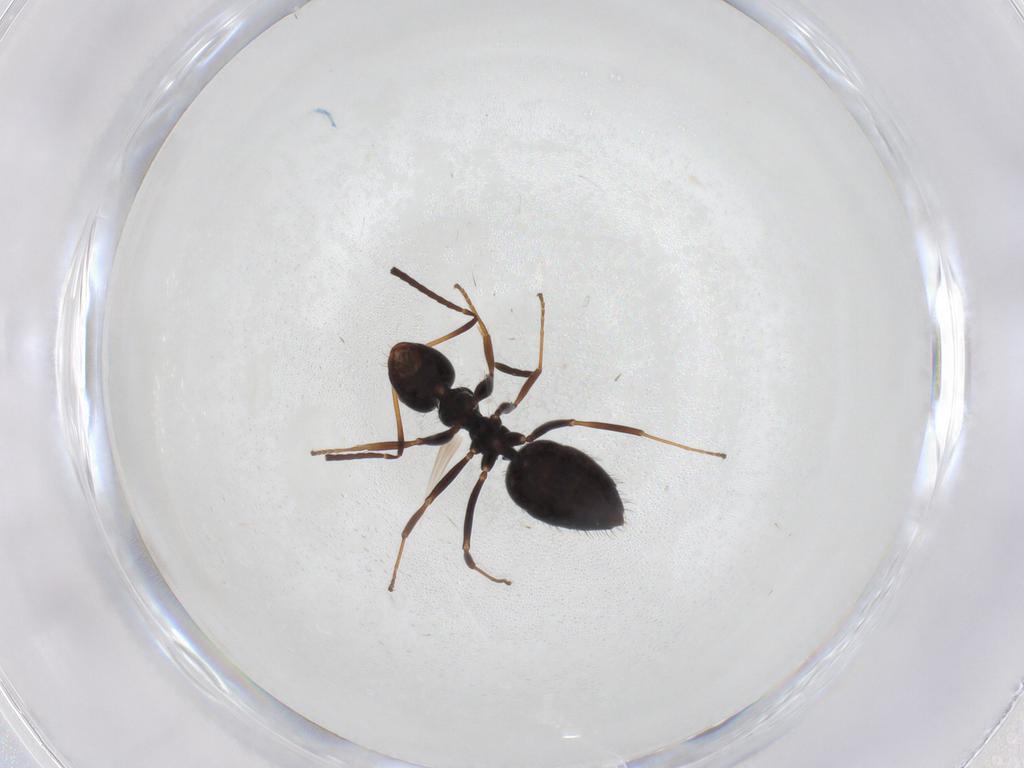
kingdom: Animalia
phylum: Arthropoda
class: Insecta
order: Hymenoptera
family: Formicidae
